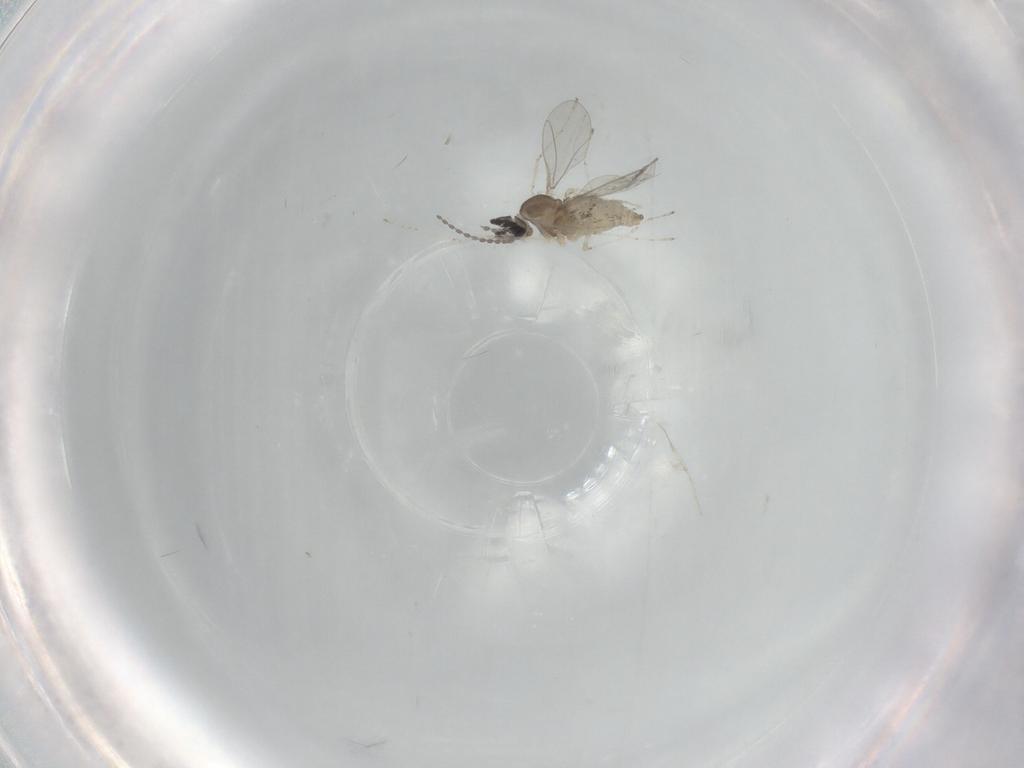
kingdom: Animalia
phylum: Arthropoda
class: Insecta
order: Diptera
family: Cecidomyiidae
